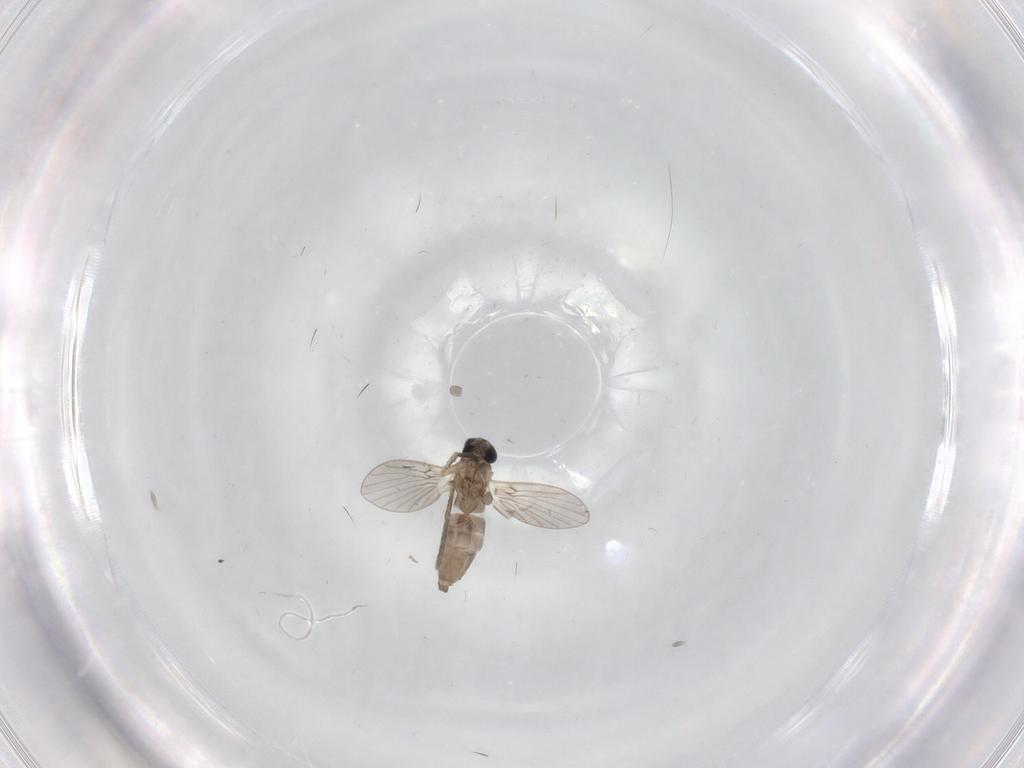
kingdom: Animalia
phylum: Arthropoda
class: Insecta
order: Diptera
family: Sciaridae
